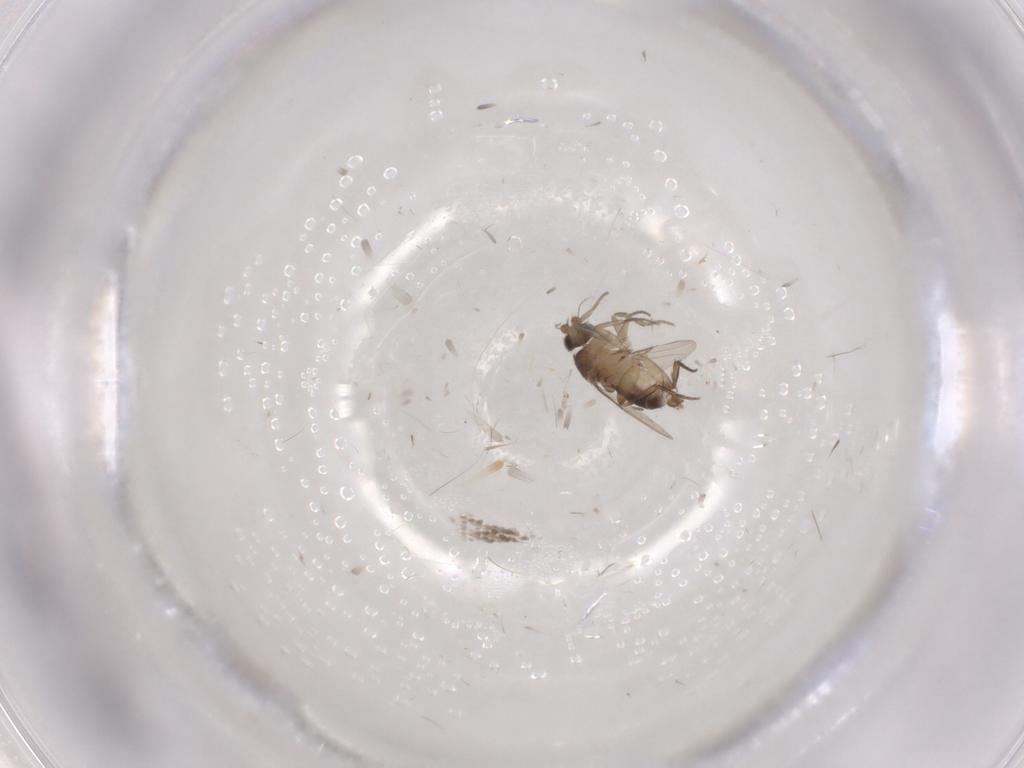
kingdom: Animalia
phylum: Arthropoda
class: Insecta
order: Diptera
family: Phoridae
